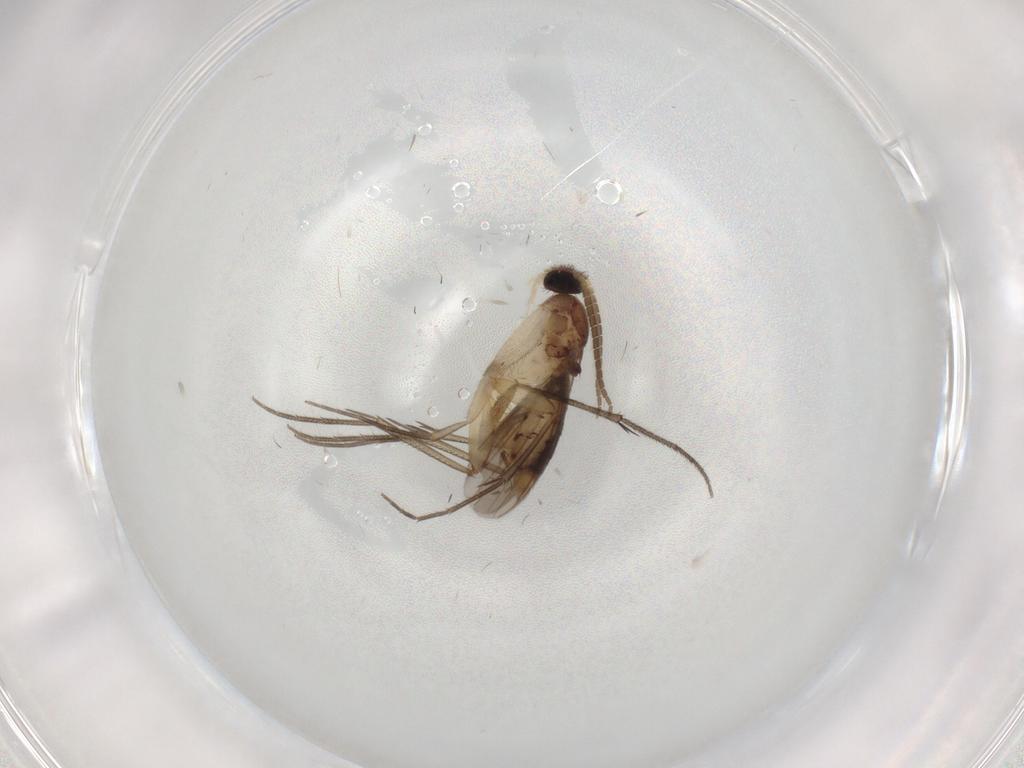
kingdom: Animalia
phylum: Arthropoda
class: Insecta
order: Diptera
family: Mycetophilidae
